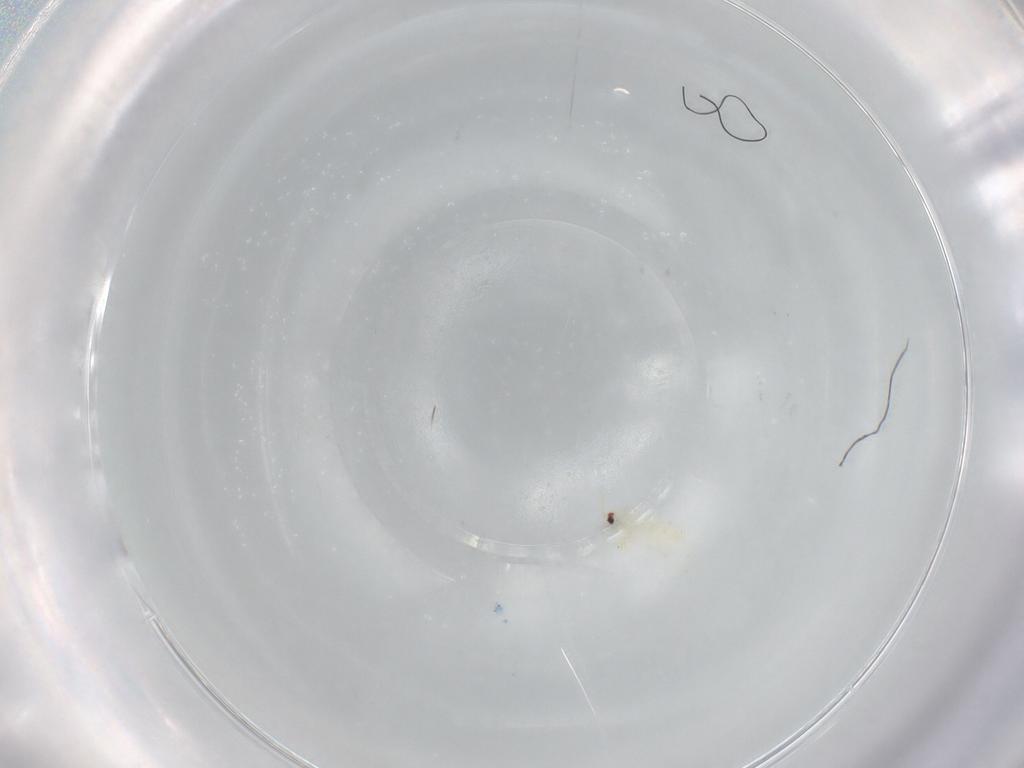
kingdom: Animalia
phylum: Arthropoda
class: Insecta
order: Hemiptera
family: Aleyrodidae
